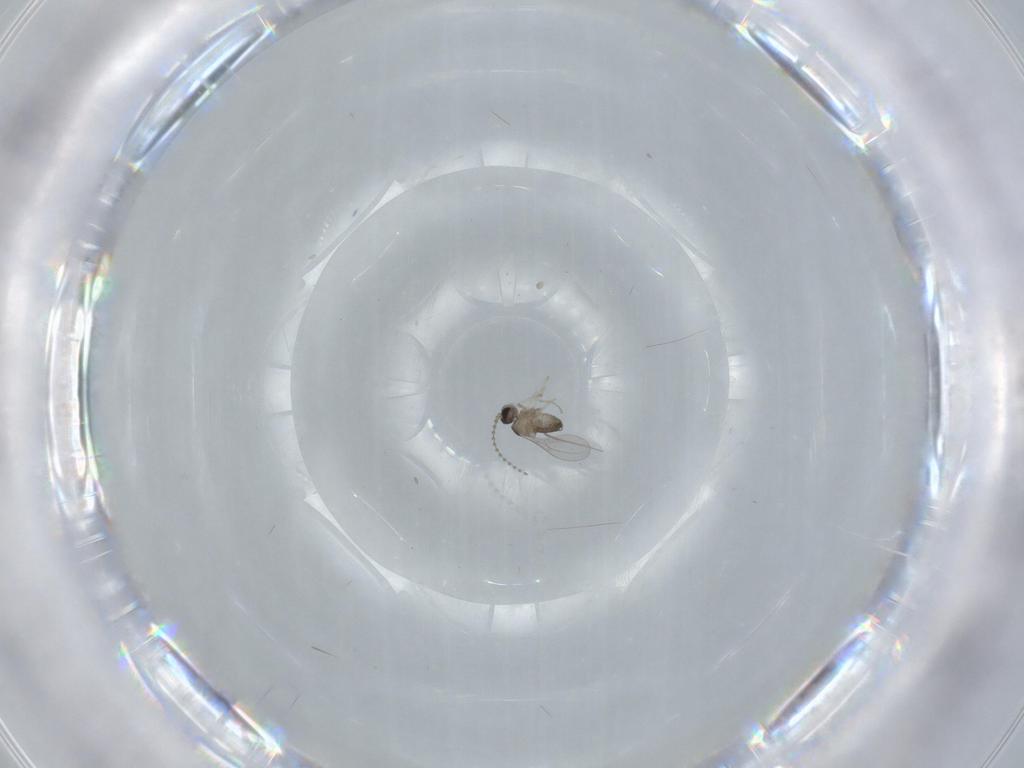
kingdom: Animalia
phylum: Arthropoda
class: Insecta
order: Diptera
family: Cecidomyiidae
